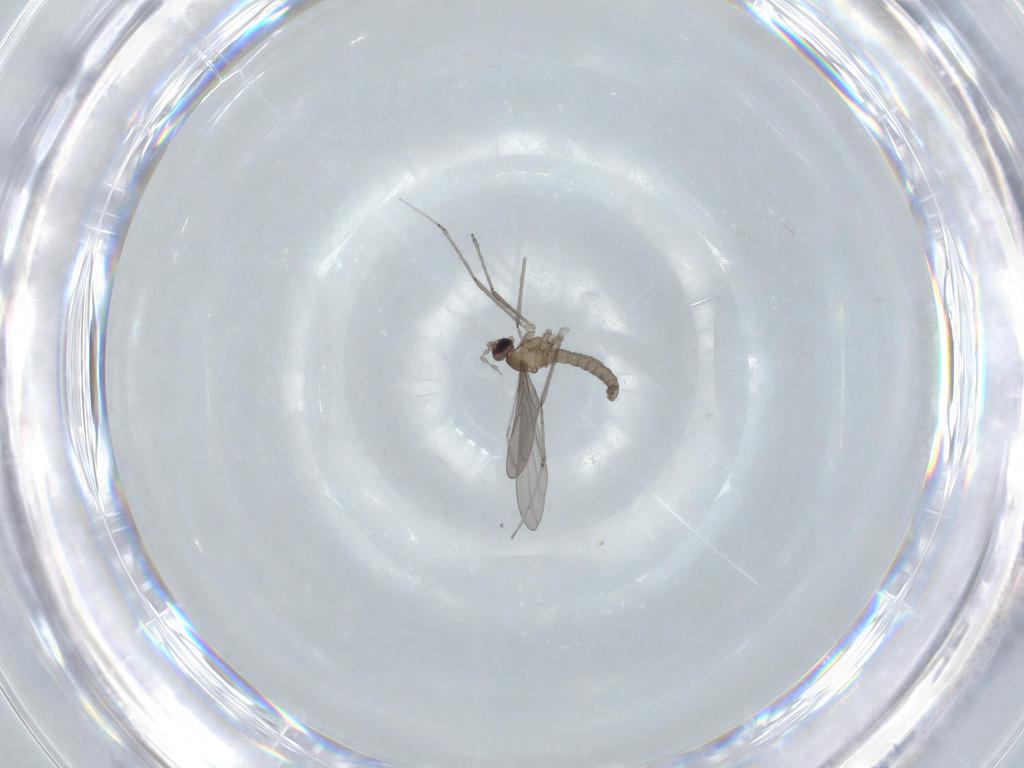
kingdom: Animalia
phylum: Arthropoda
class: Insecta
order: Diptera
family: Cecidomyiidae
